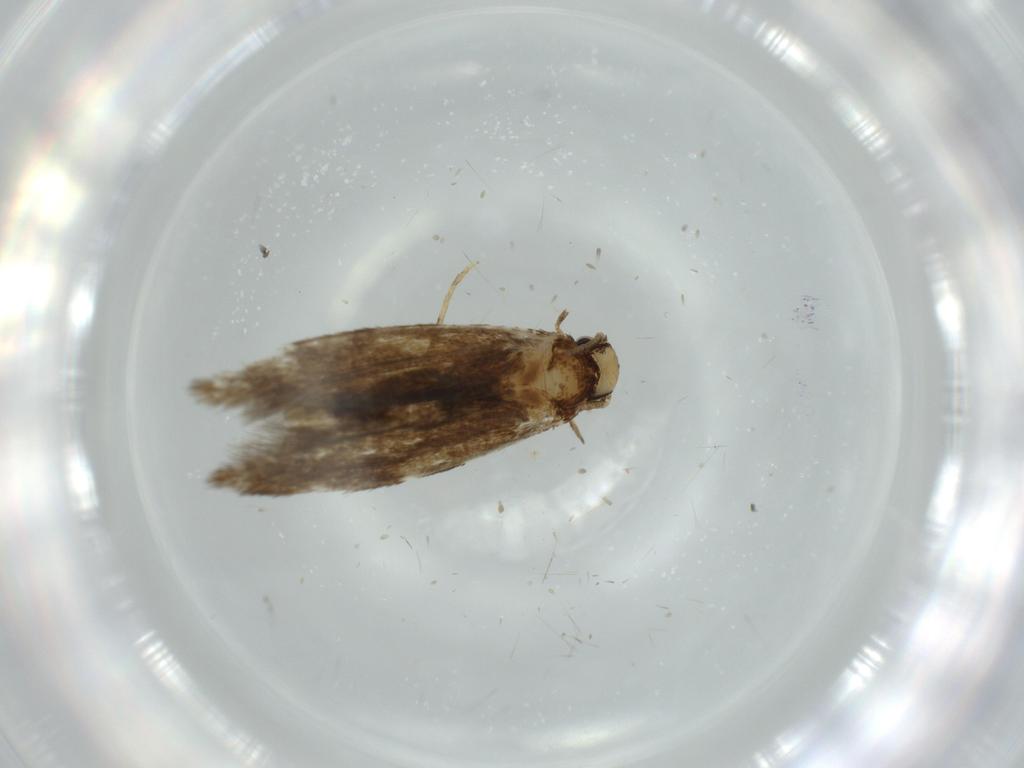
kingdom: Animalia
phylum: Arthropoda
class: Insecta
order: Lepidoptera
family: Tineidae
